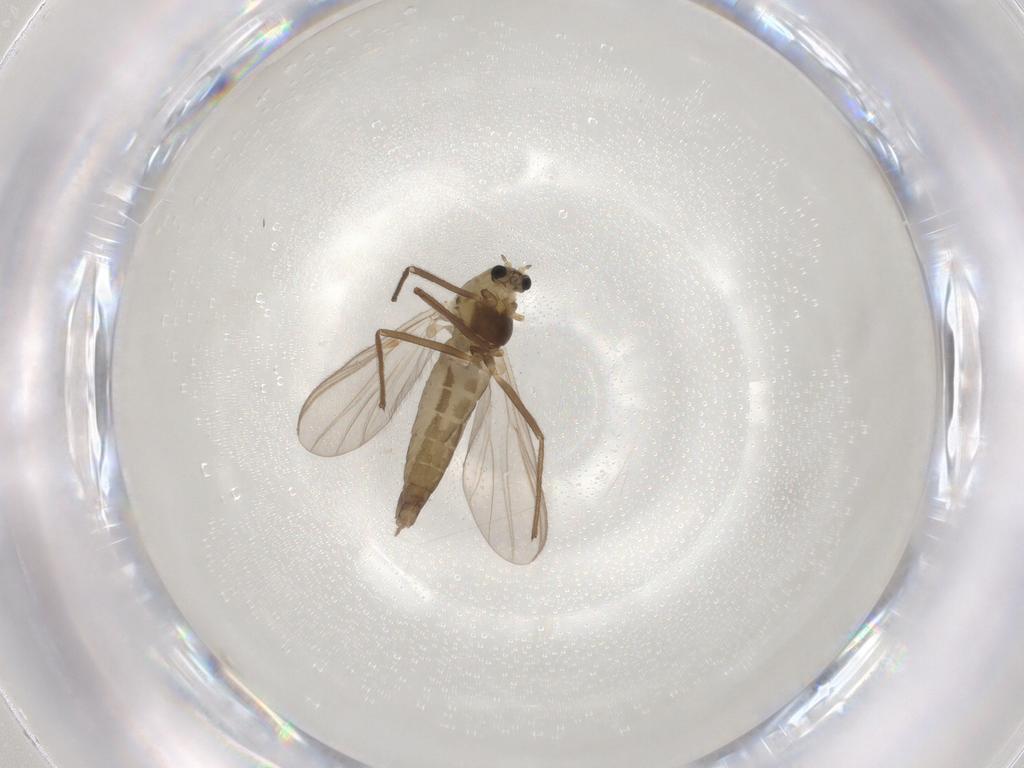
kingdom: Animalia
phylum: Arthropoda
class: Insecta
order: Diptera
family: Chironomidae
